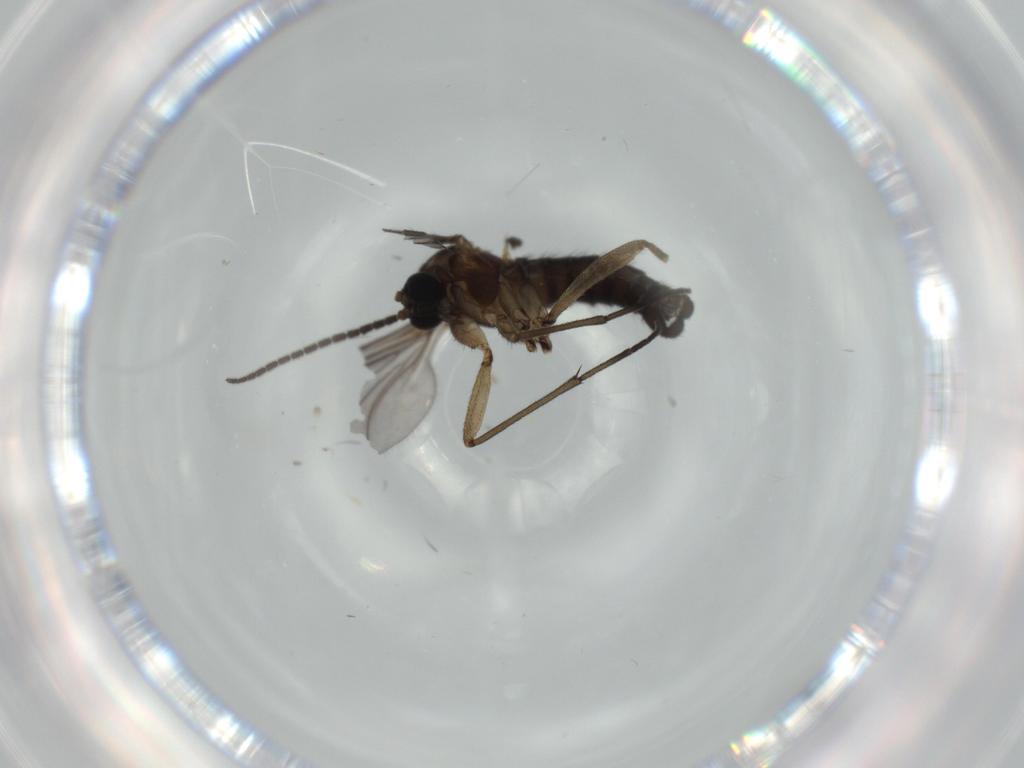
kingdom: Animalia
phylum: Arthropoda
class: Insecta
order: Diptera
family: Sciaridae
